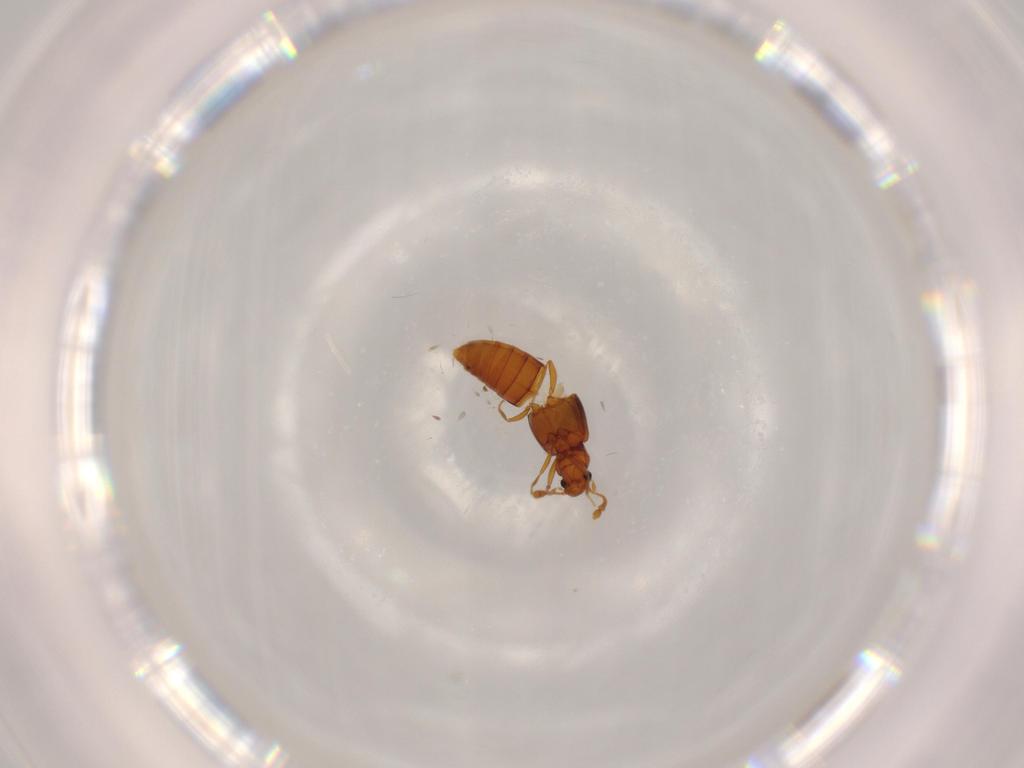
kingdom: Animalia
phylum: Arthropoda
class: Insecta
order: Coleoptera
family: Staphylinidae
